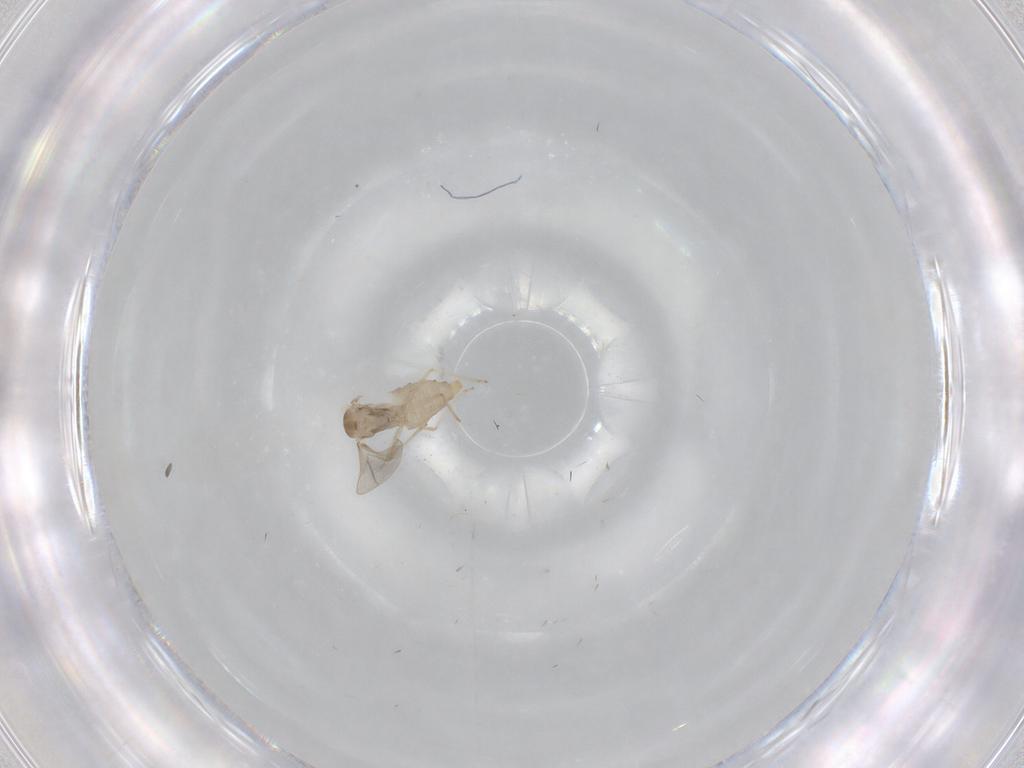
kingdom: Animalia
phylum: Arthropoda
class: Insecta
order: Diptera
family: Cecidomyiidae
